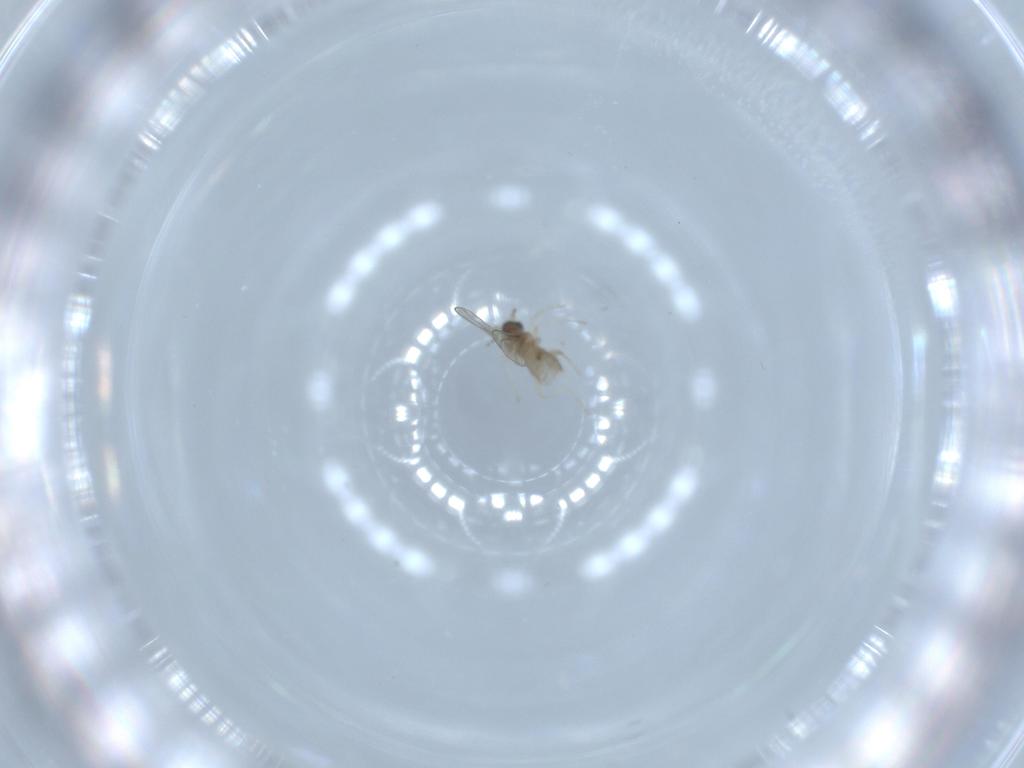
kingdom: Animalia
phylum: Arthropoda
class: Insecta
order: Diptera
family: Cecidomyiidae
